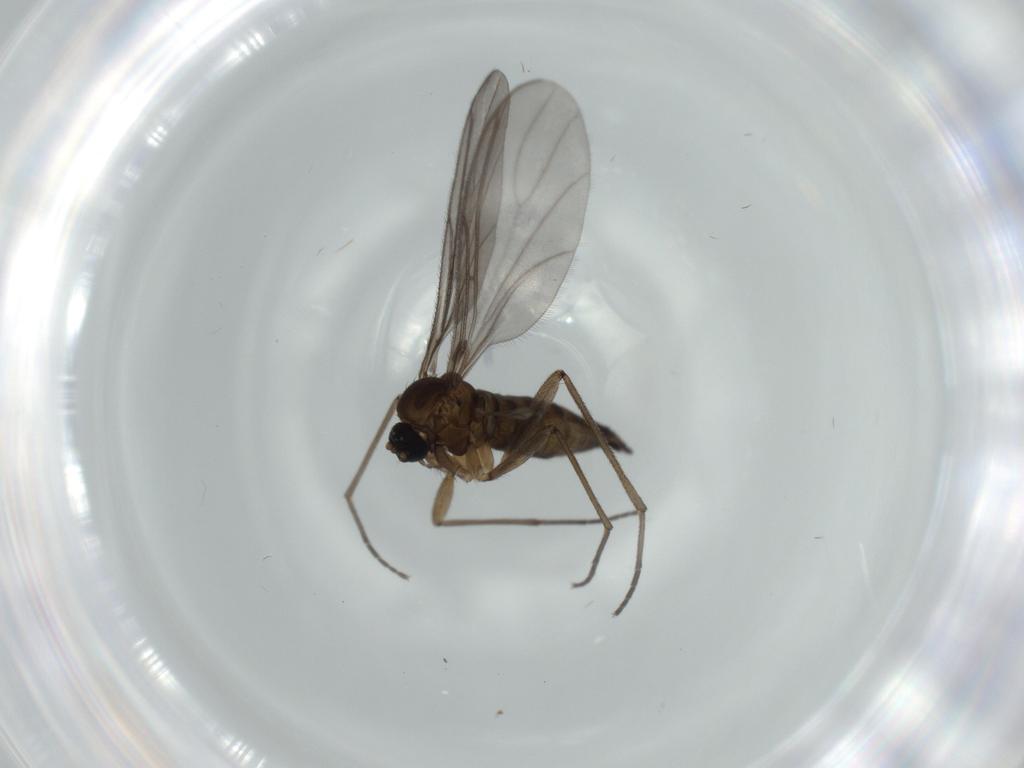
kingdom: Animalia
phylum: Arthropoda
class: Insecta
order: Diptera
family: Sciaridae
